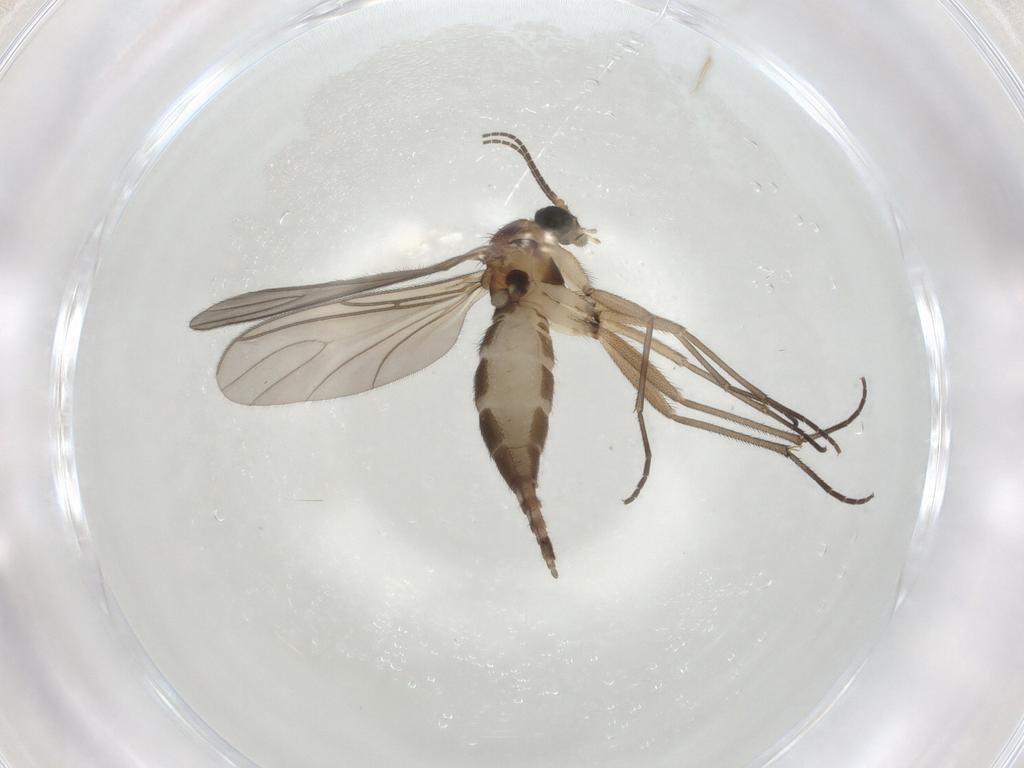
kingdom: Animalia
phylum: Arthropoda
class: Insecta
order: Diptera
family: Sciaridae
